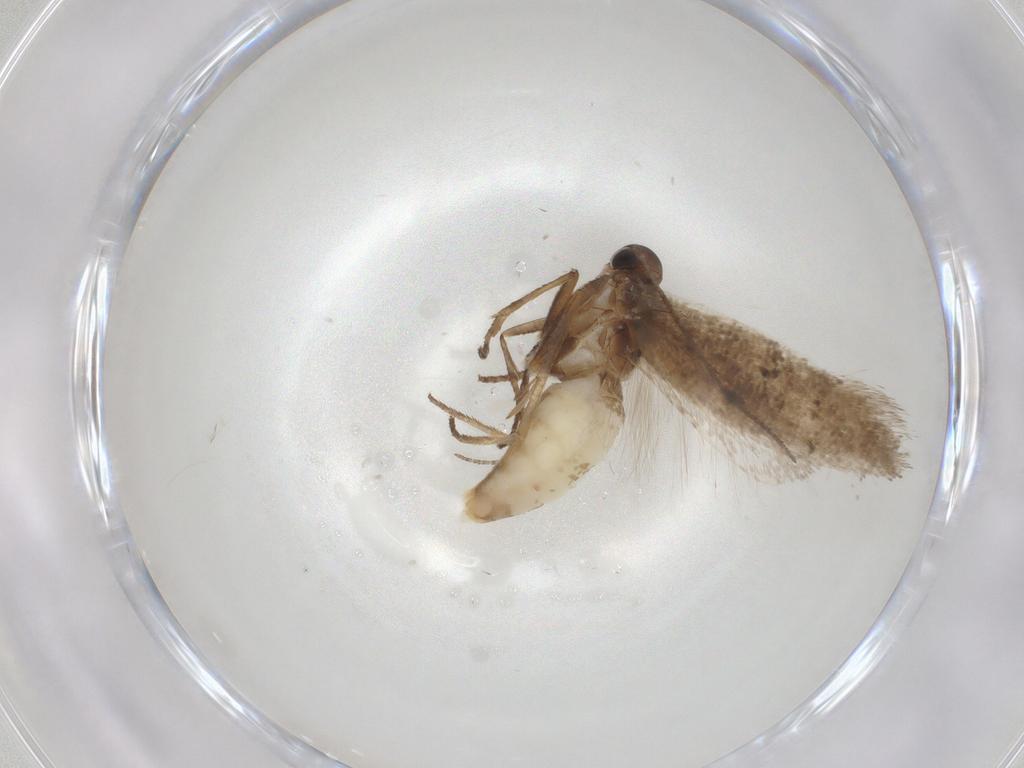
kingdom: Animalia
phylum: Arthropoda
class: Insecta
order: Lepidoptera
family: Gelechiidae
